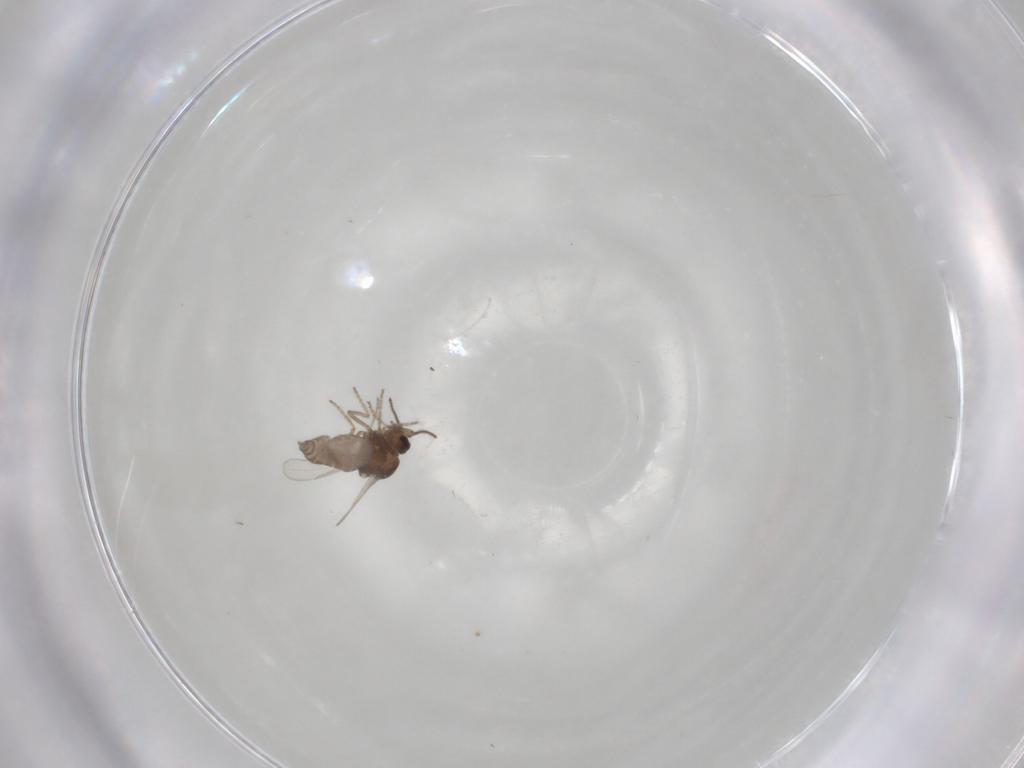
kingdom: Animalia
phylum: Arthropoda
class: Insecta
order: Diptera
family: Ceratopogonidae
